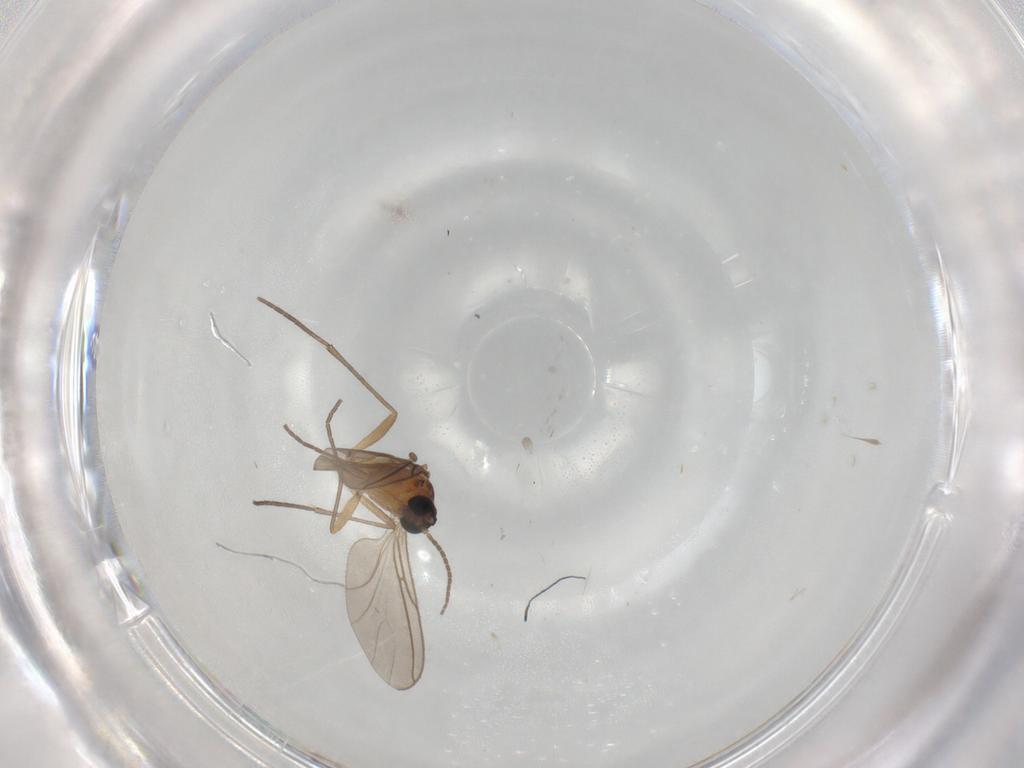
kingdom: Animalia
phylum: Arthropoda
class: Insecta
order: Diptera
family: Sciaridae
